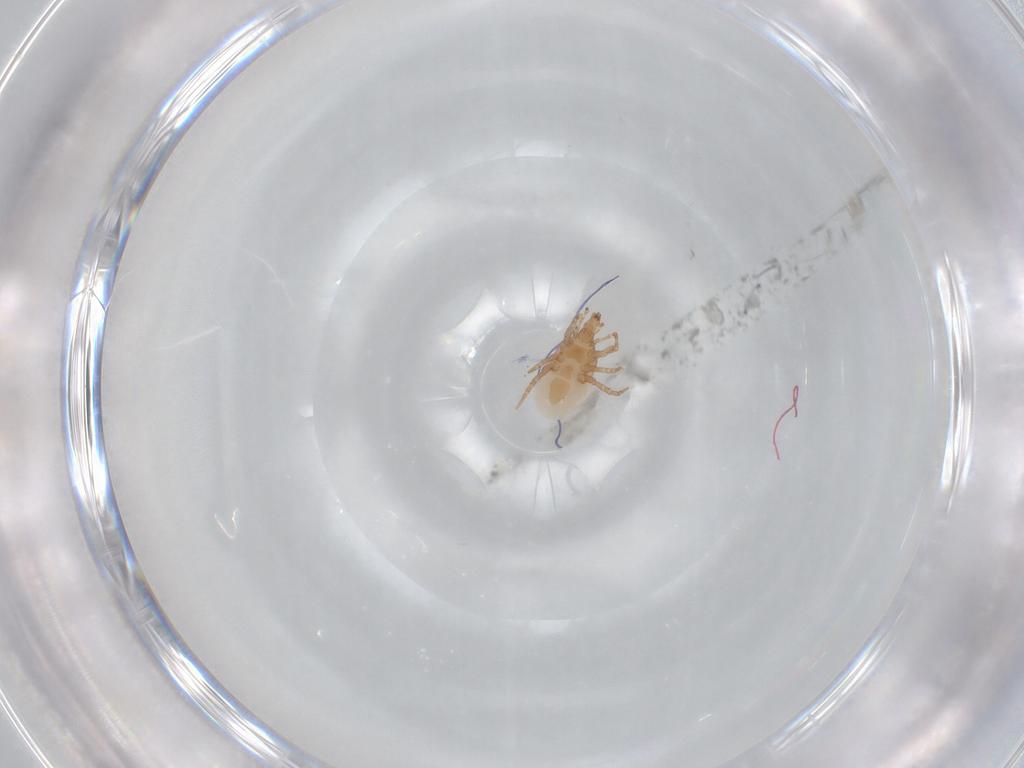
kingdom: Animalia
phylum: Arthropoda
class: Arachnida
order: Mesostigmata
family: Macrochelidae
